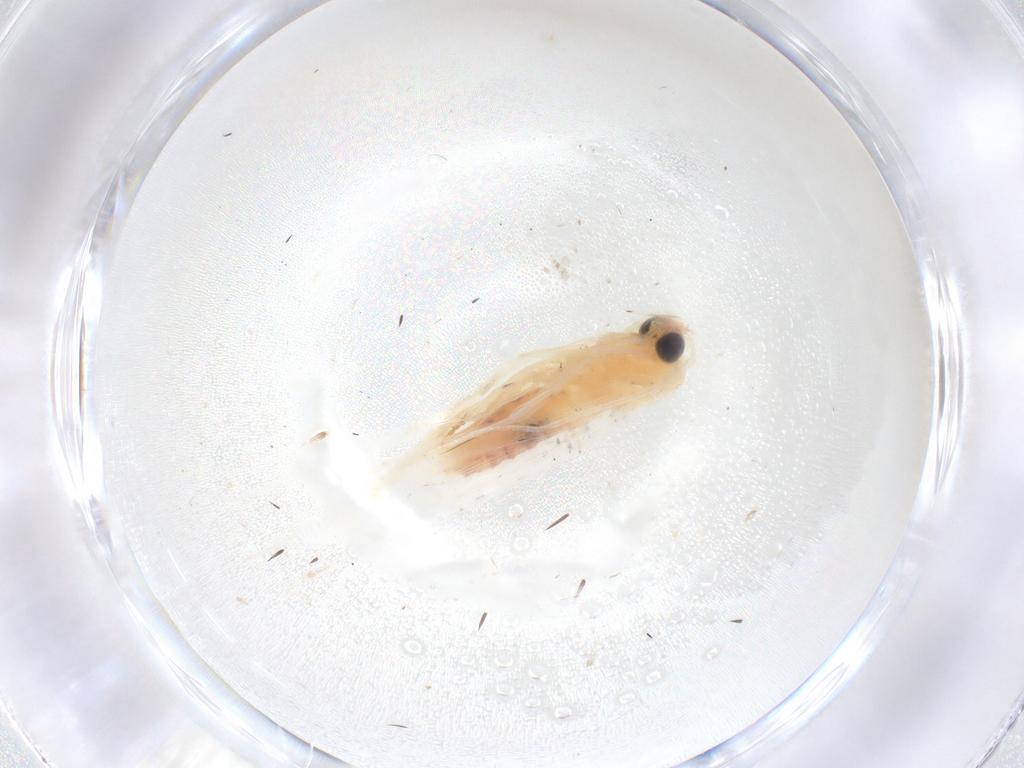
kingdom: Animalia
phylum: Arthropoda
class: Insecta
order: Lepidoptera
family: Argyresthiidae
